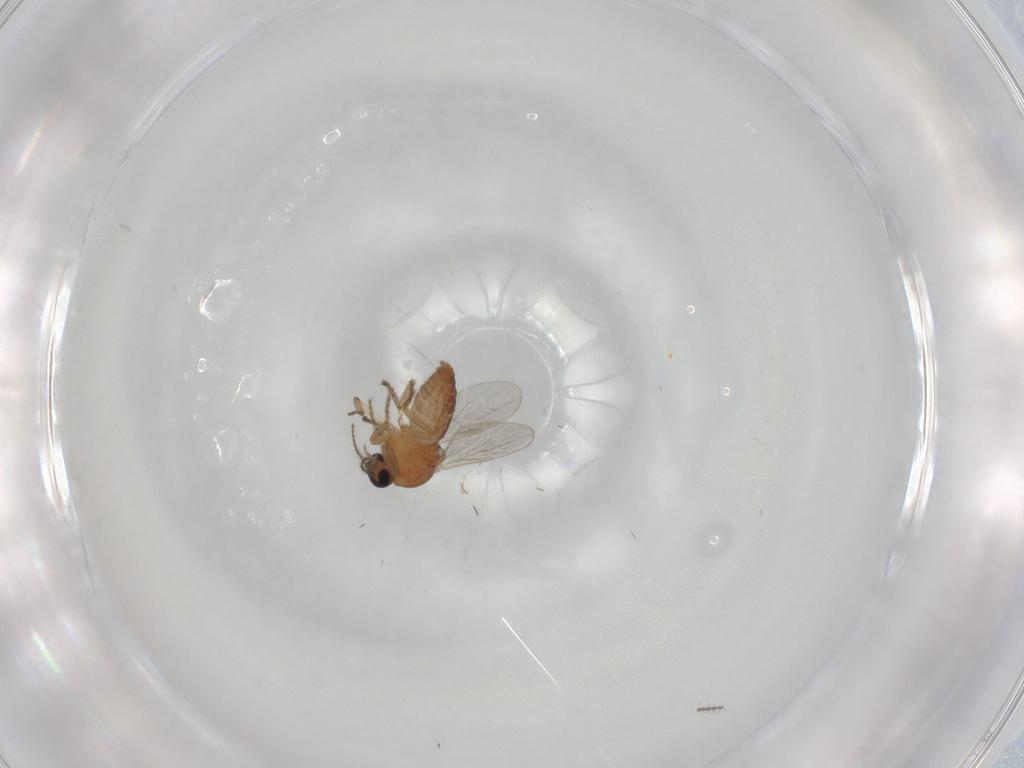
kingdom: Animalia
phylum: Arthropoda
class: Insecta
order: Diptera
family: Ceratopogonidae
